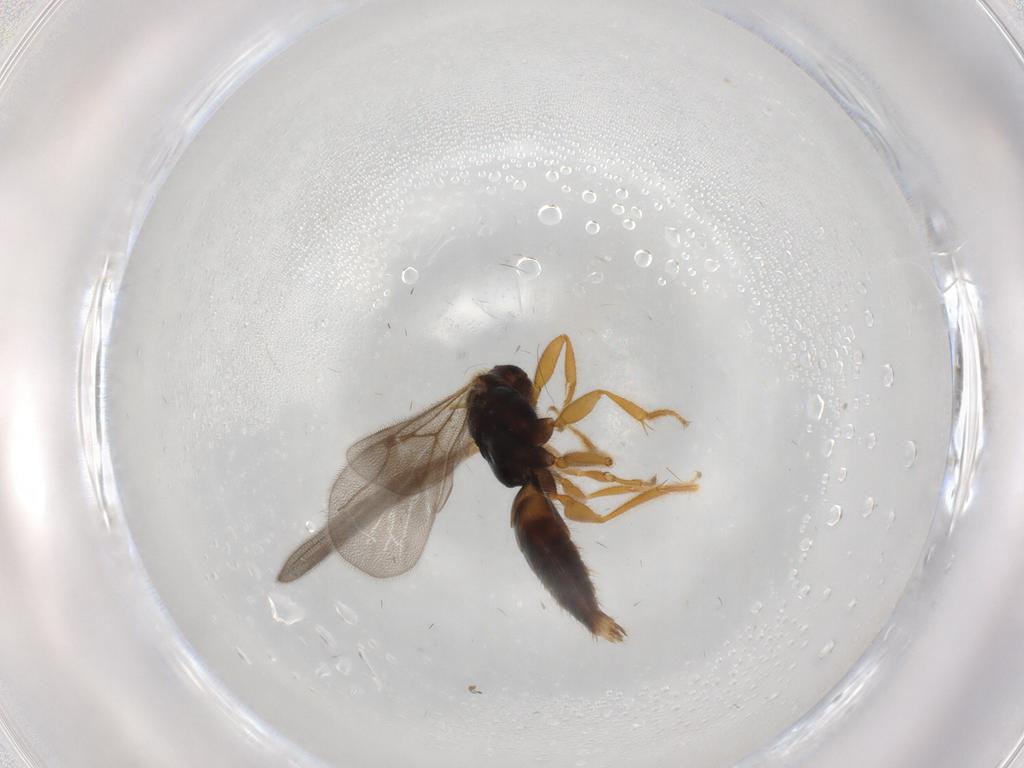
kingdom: Animalia
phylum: Arthropoda
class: Insecta
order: Hymenoptera
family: Bethylidae
